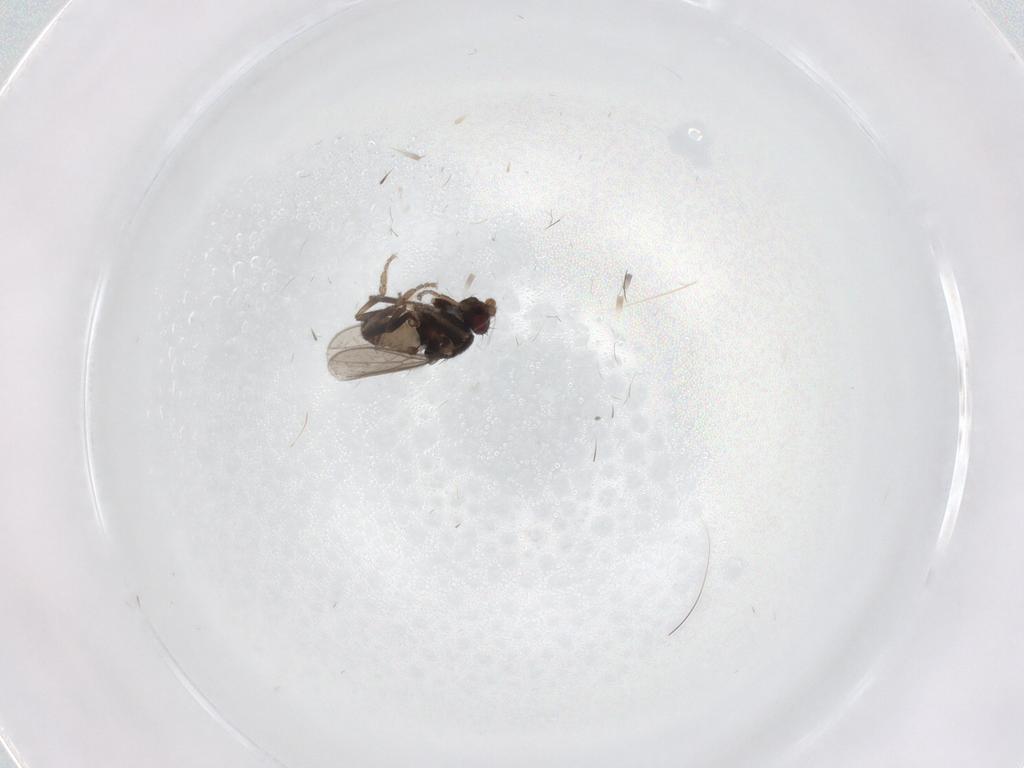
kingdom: Animalia
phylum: Arthropoda
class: Insecta
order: Diptera
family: Sphaeroceridae
